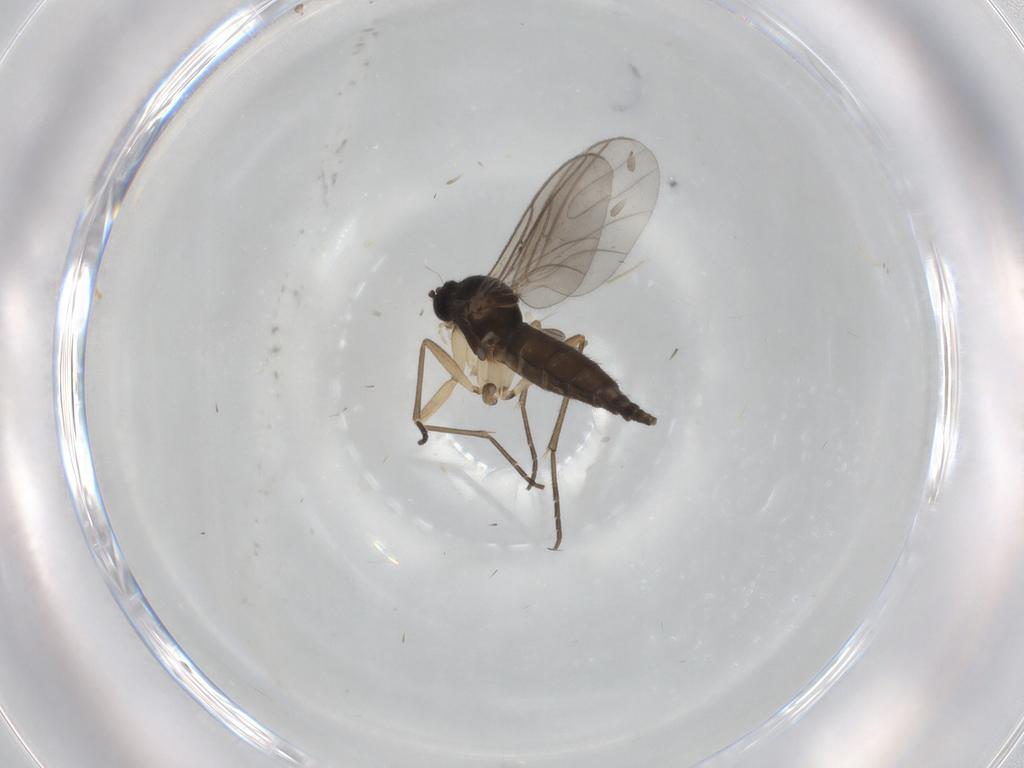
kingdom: Animalia
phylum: Arthropoda
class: Insecta
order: Diptera
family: Sciaridae
